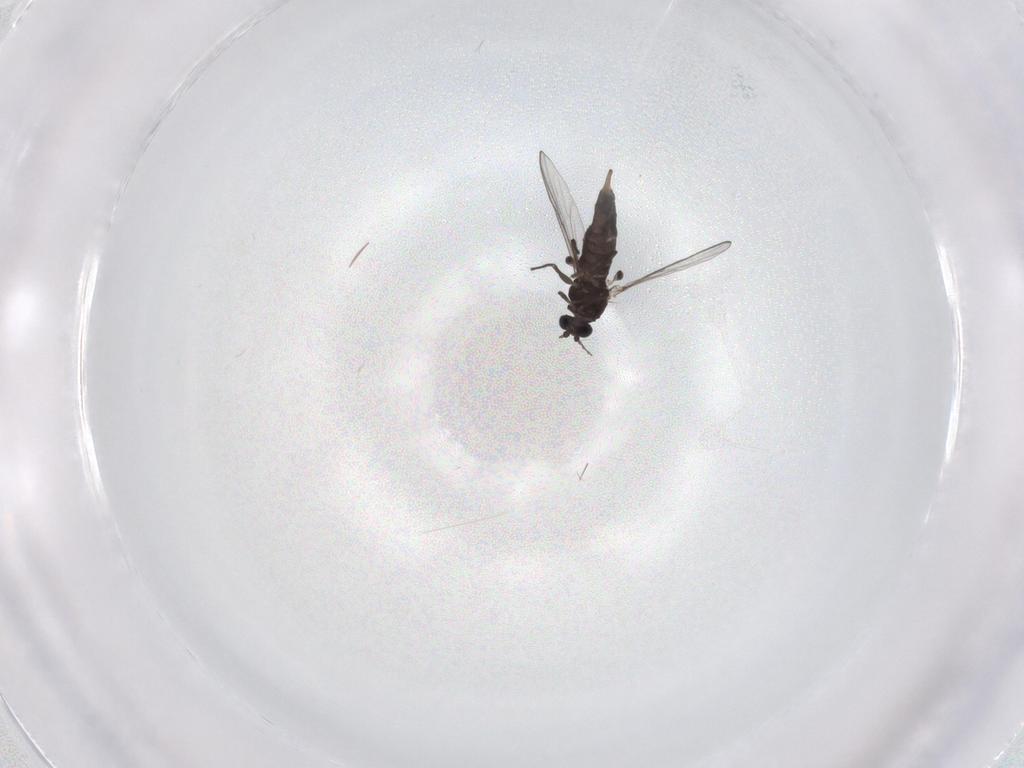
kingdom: Animalia
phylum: Arthropoda
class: Insecta
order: Diptera
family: Chironomidae
